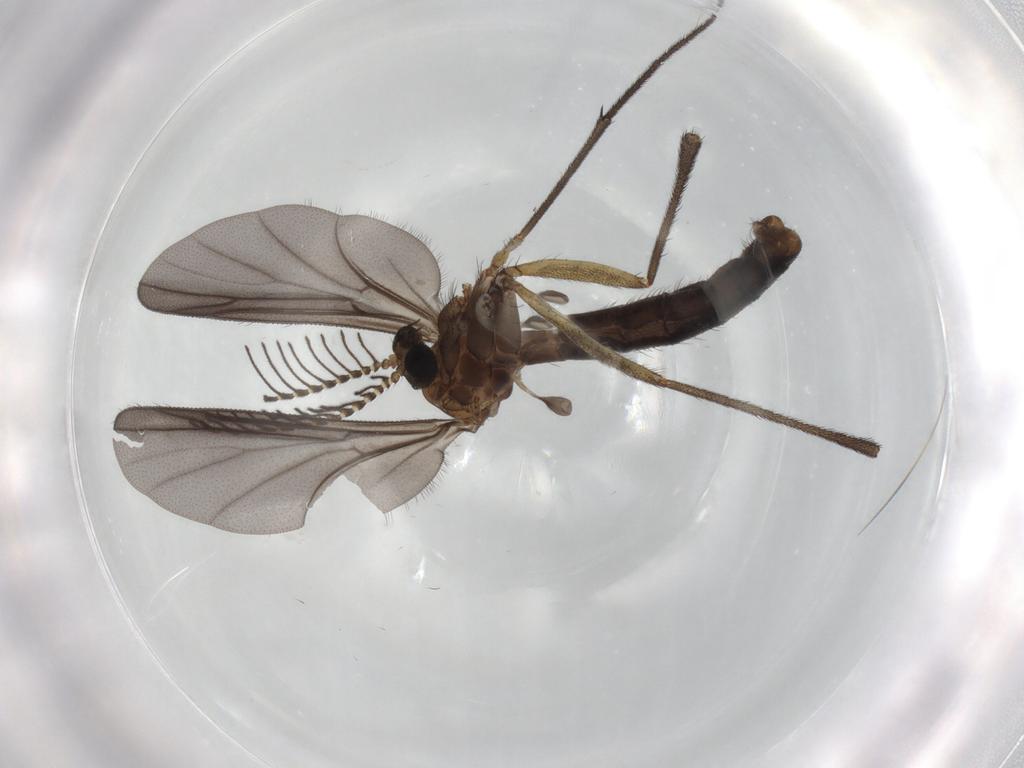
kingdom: Animalia
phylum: Arthropoda
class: Insecta
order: Diptera
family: Ditomyiidae
